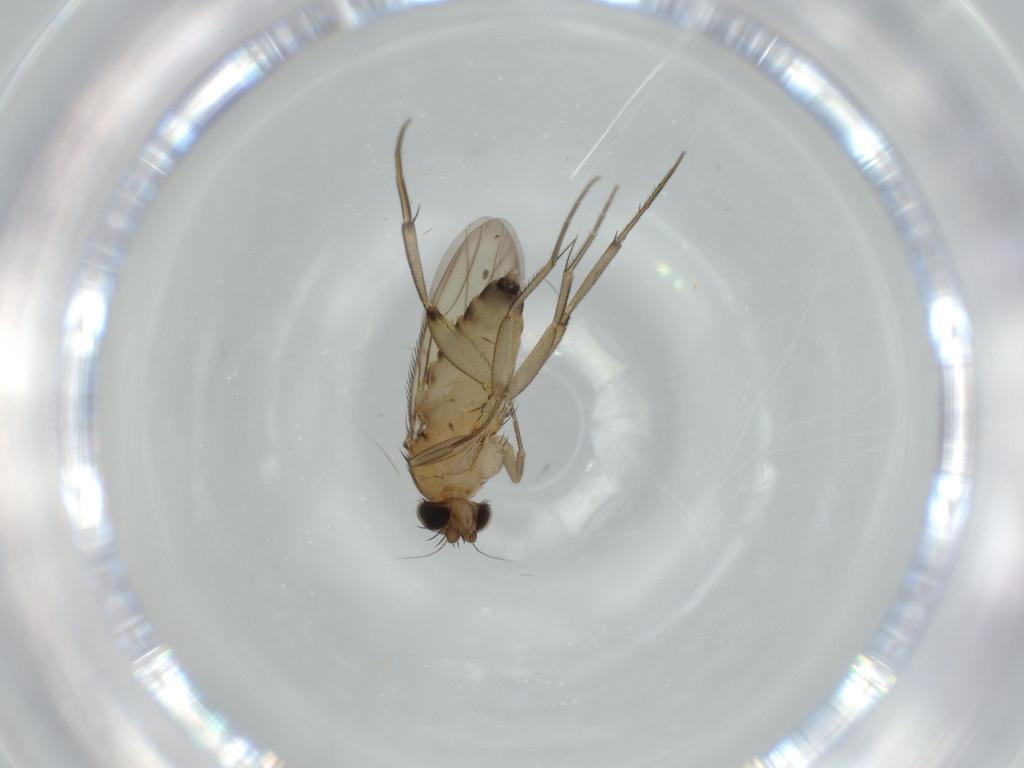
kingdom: Animalia
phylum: Arthropoda
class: Insecta
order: Diptera
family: Phoridae
